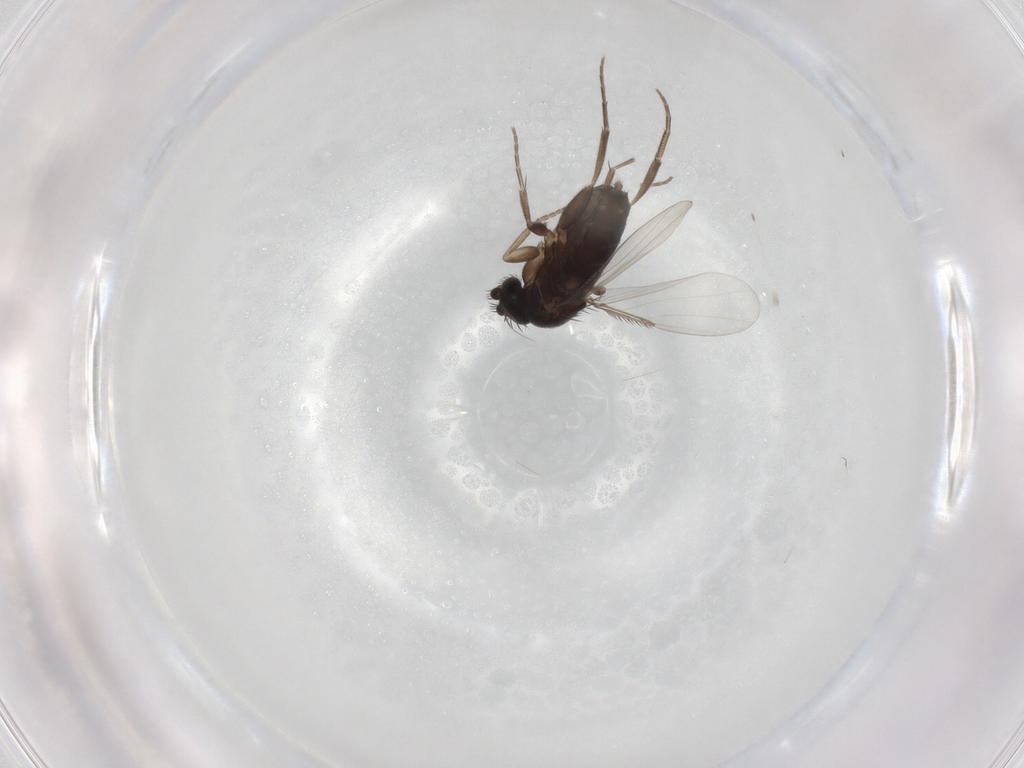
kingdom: Animalia
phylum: Arthropoda
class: Insecta
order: Diptera
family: Phoridae
